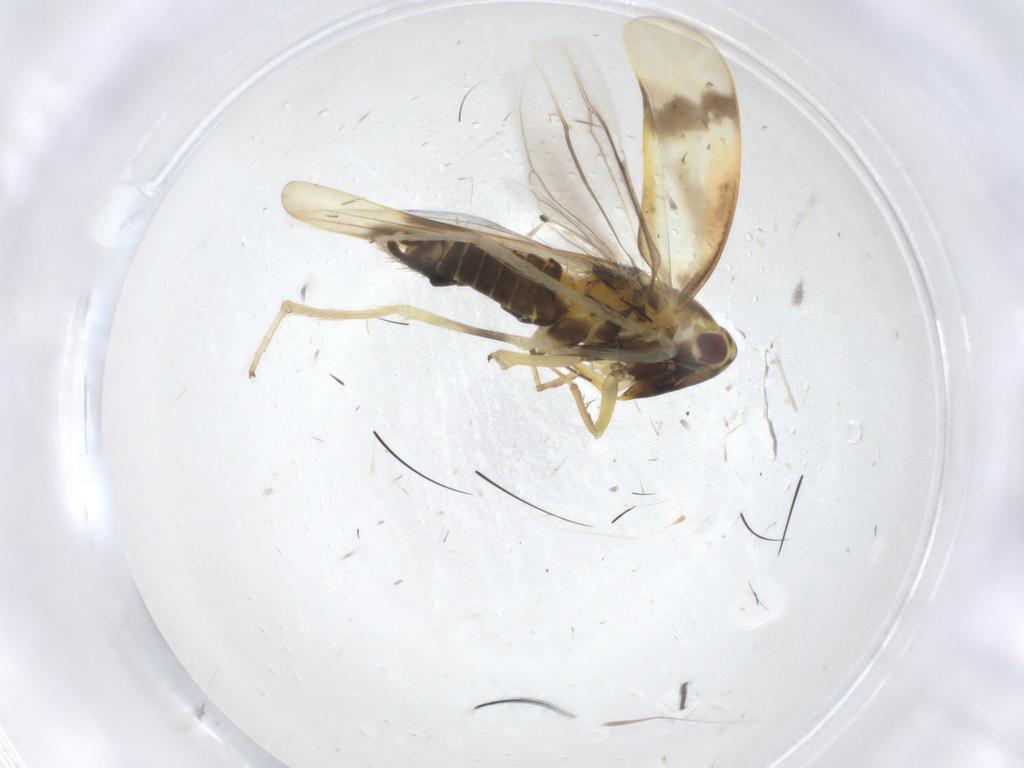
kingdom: Animalia
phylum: Arthropoda
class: Insecta
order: Hemiptera
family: Cicadellidae
